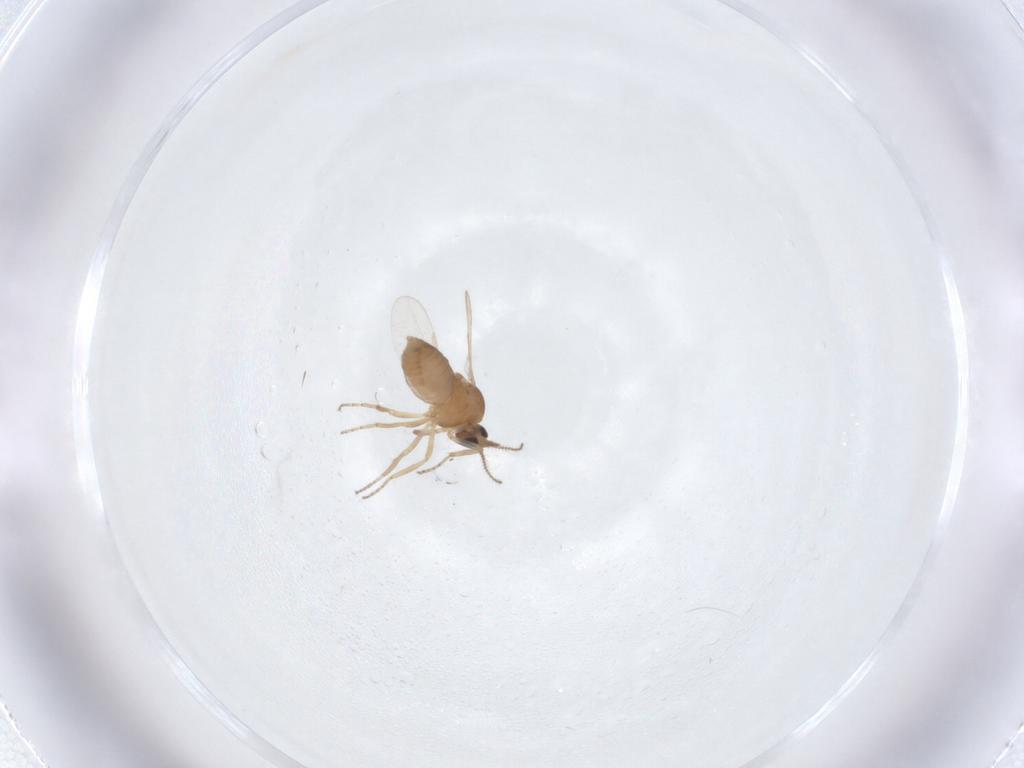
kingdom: Animalia
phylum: Arthropoda
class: Insecta
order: Diptera
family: Ceratopogonidae
